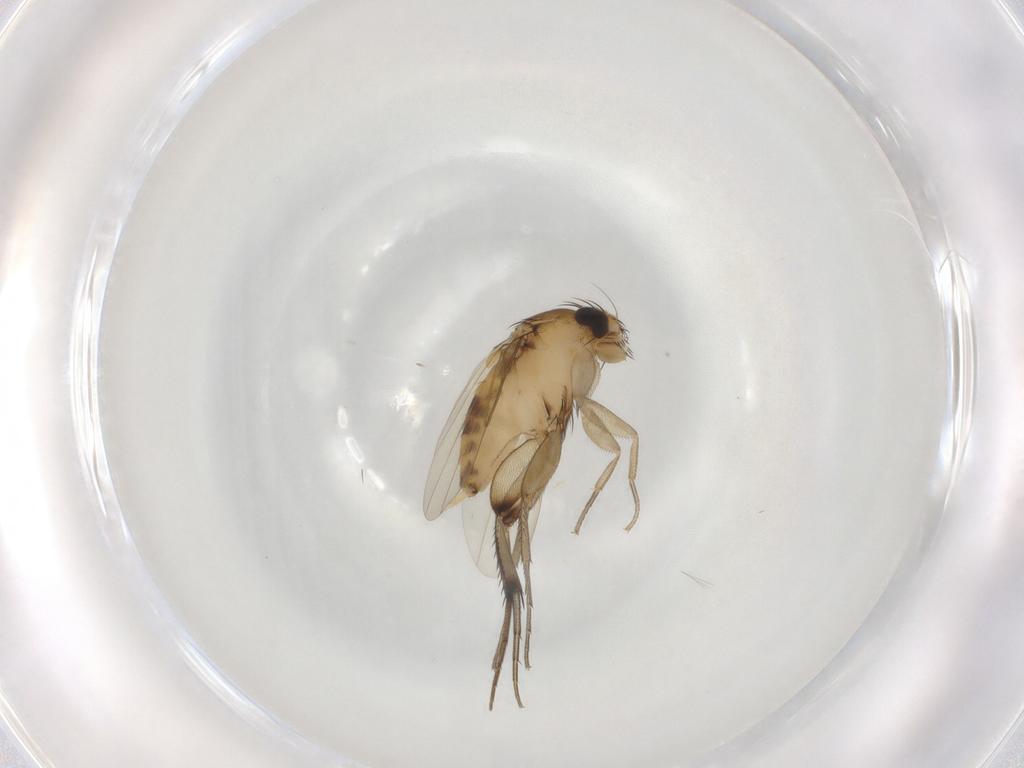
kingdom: Animalia
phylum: Arthropoda
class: Insecta
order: Diptera
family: Phoridae
